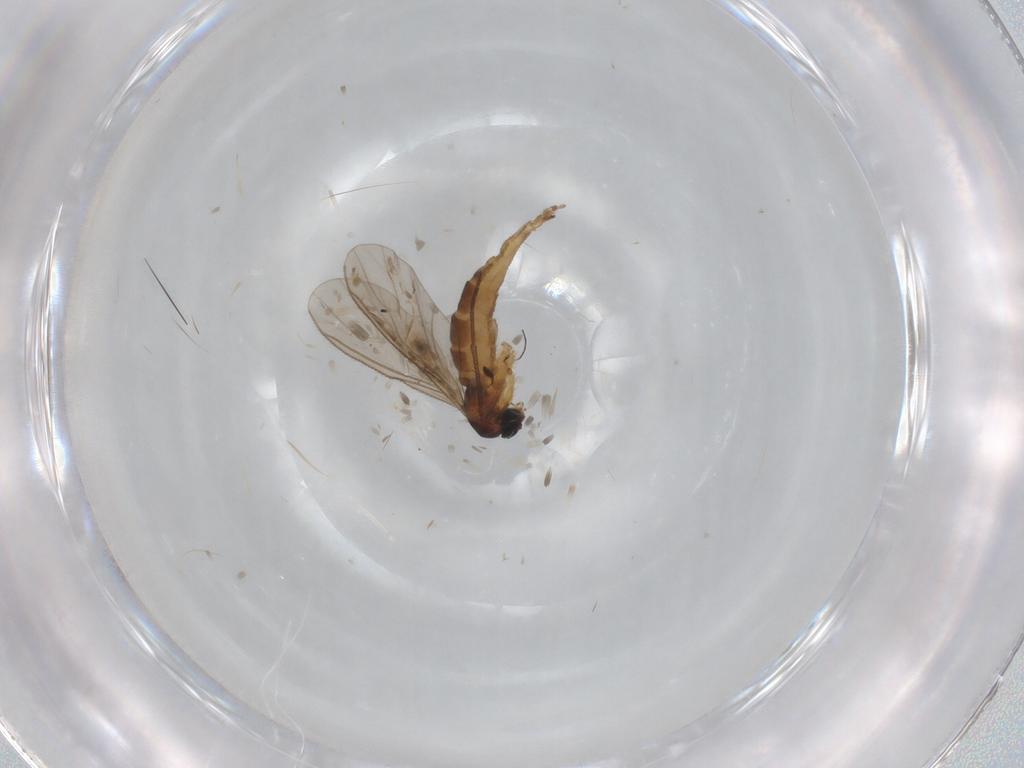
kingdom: Animalia
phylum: Arthropoda
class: Insecta
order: Diptera
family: Sciaridae
